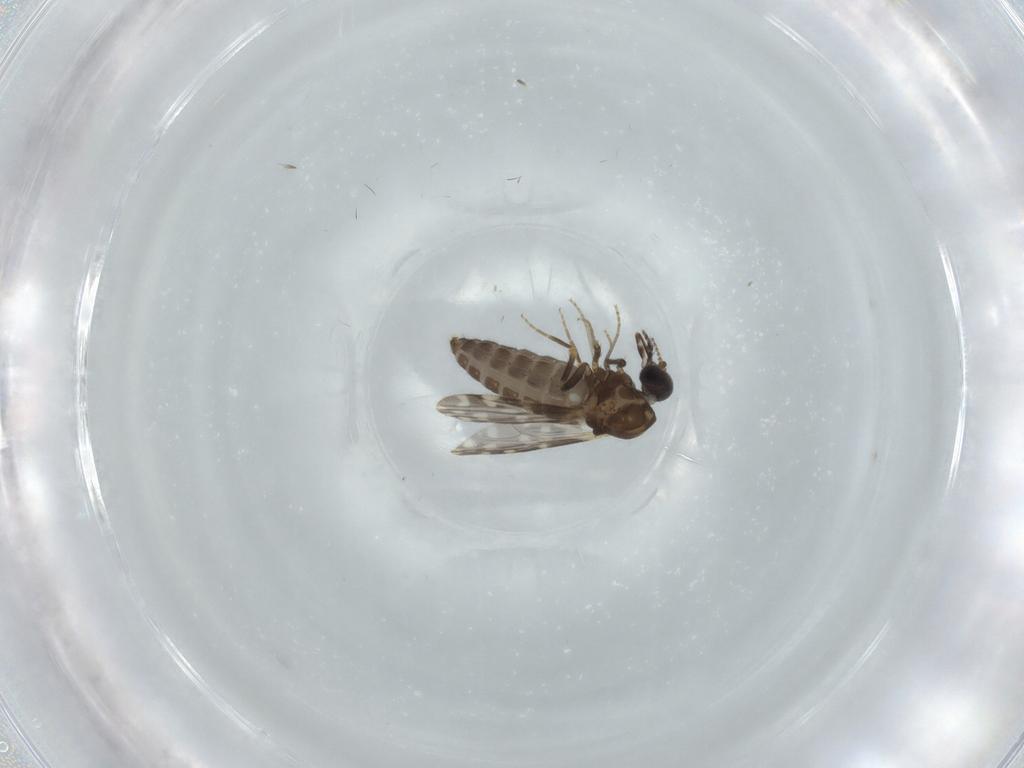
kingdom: Animalia
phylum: Arthropoda
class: Insecta
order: Diptera
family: Ceratopogonidae
